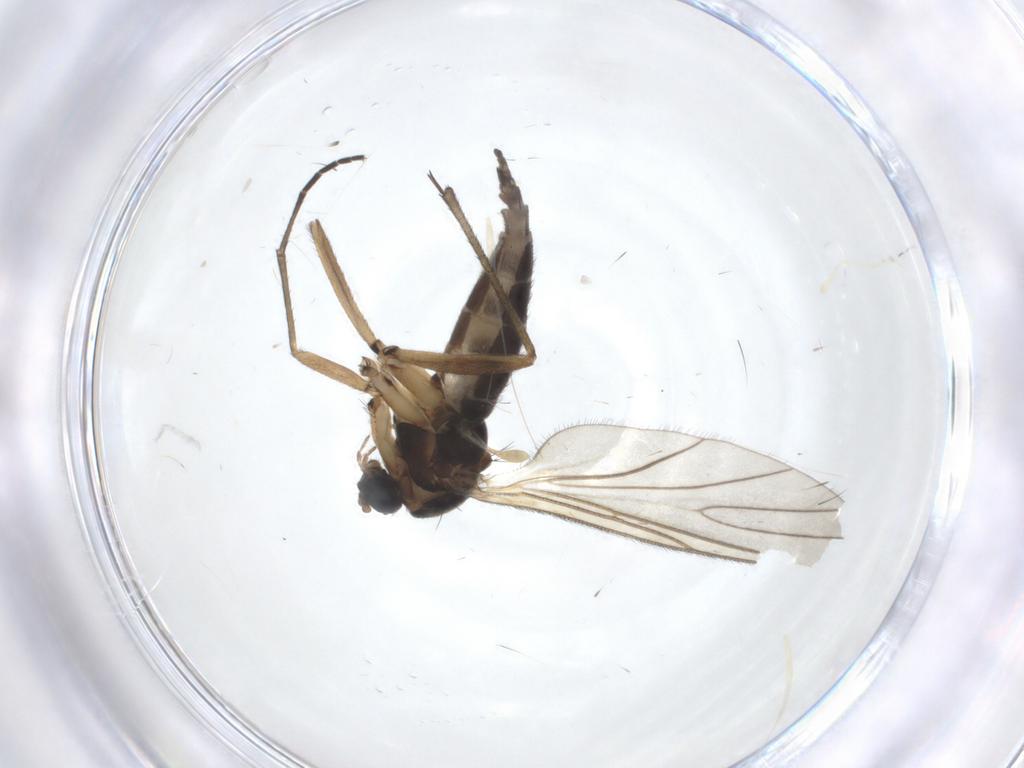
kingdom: Animalia
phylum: Arthropoda
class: Insecta
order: Diptera
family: Sciaridae
